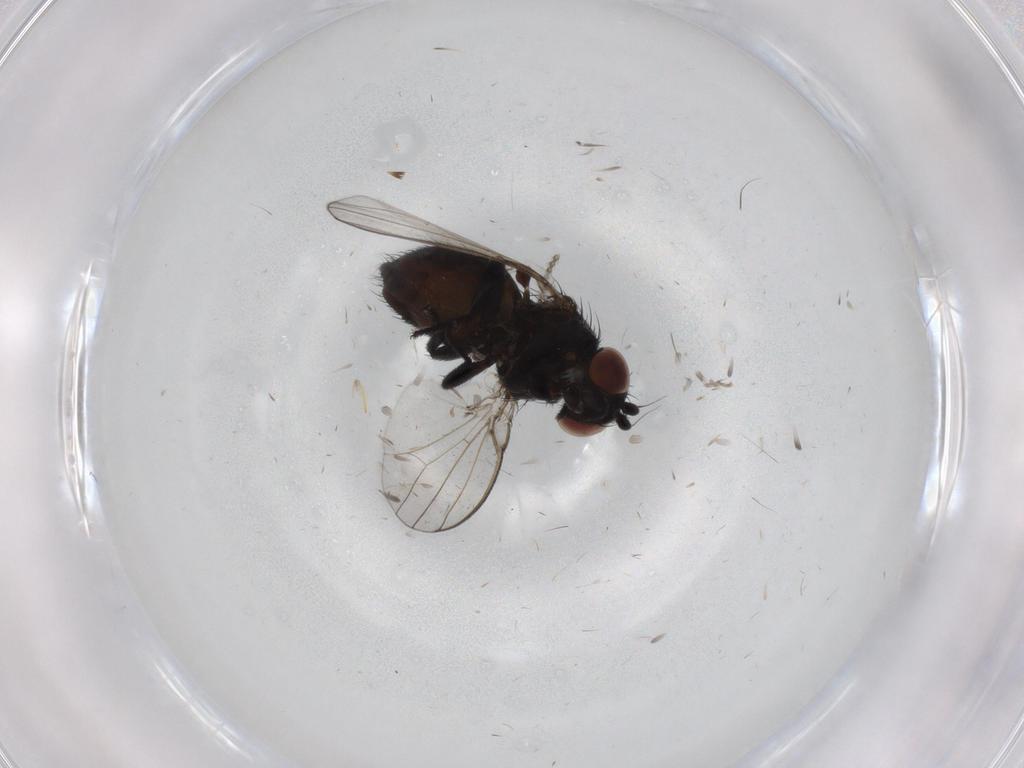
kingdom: Animalia
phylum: Arthropoda
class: Insecta
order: Diptera
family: Milichiidae
